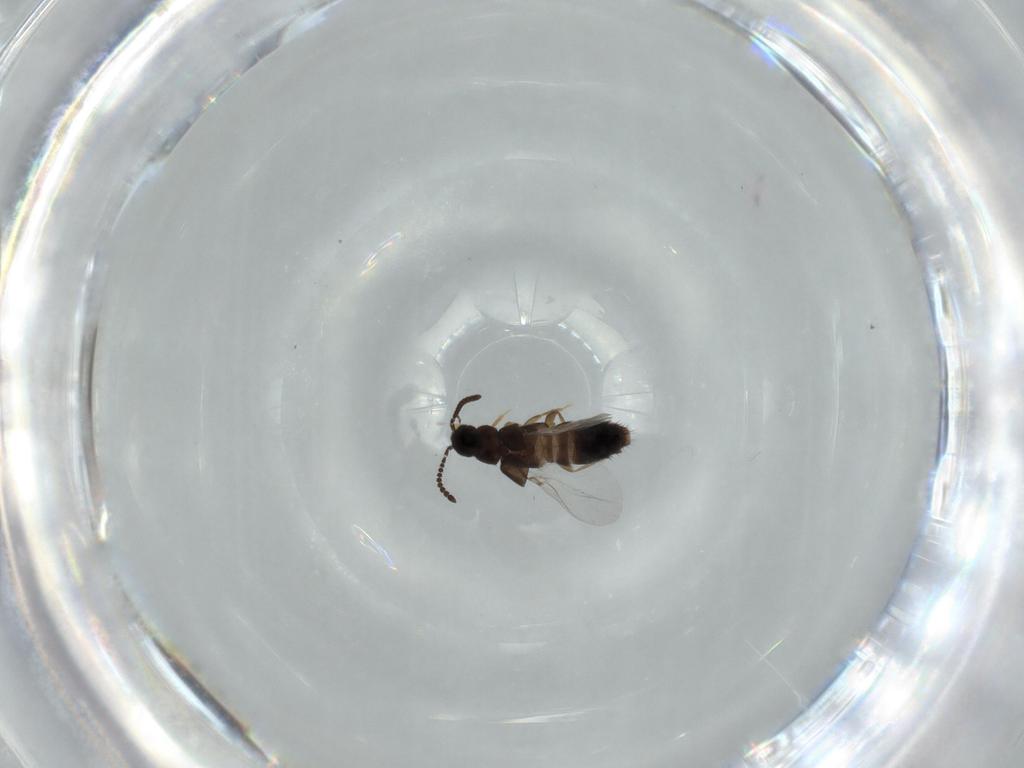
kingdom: Animalia
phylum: Arthropoda
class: Insecta
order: Coleoptera
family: Staphylinidae
